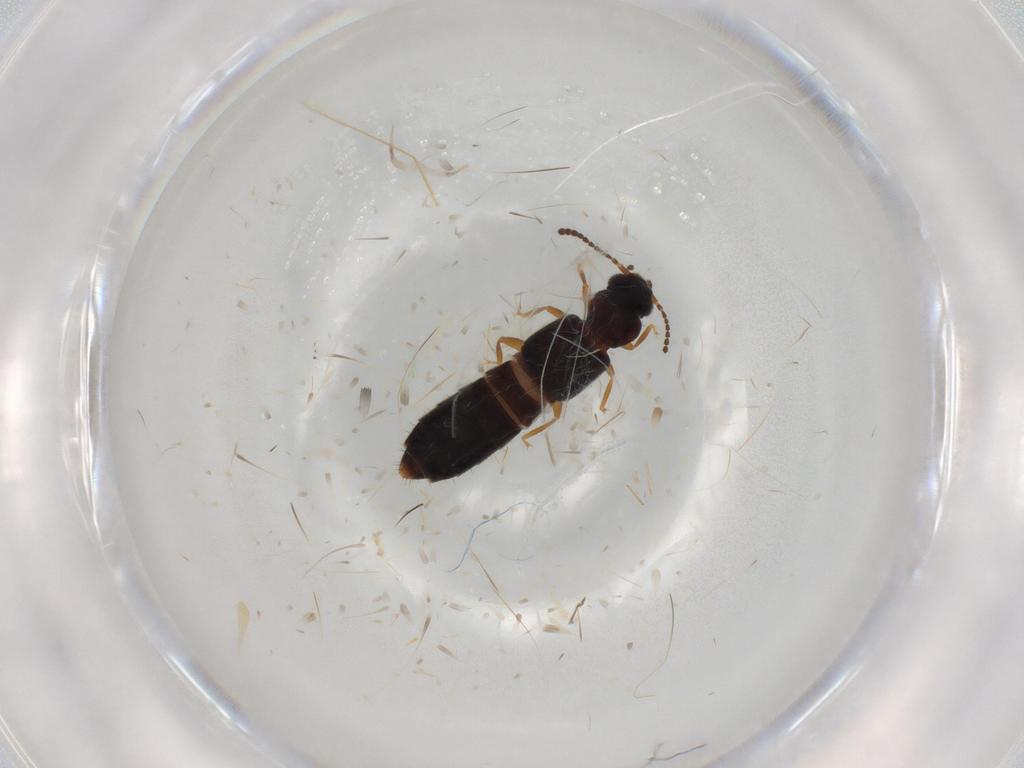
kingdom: Animalia
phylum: Arthropoda
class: Insecta
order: Coleoptera
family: Staphylinidae
